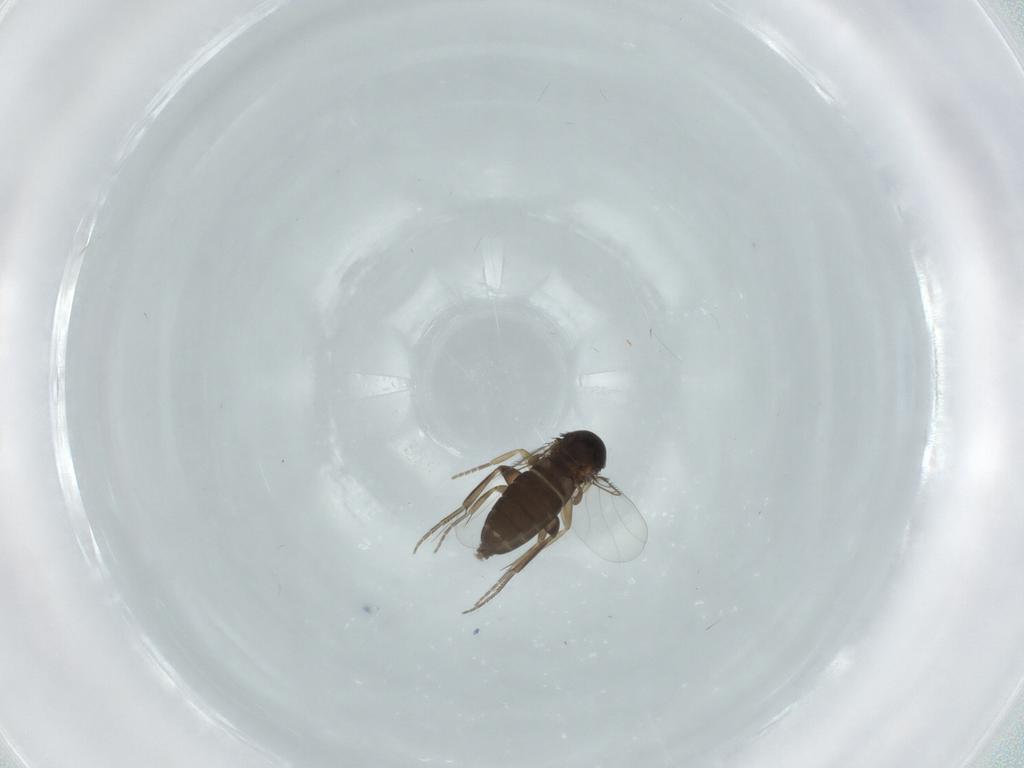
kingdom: Animalia
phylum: Arthropoda
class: Insecta
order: Diptera
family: Phoridae
